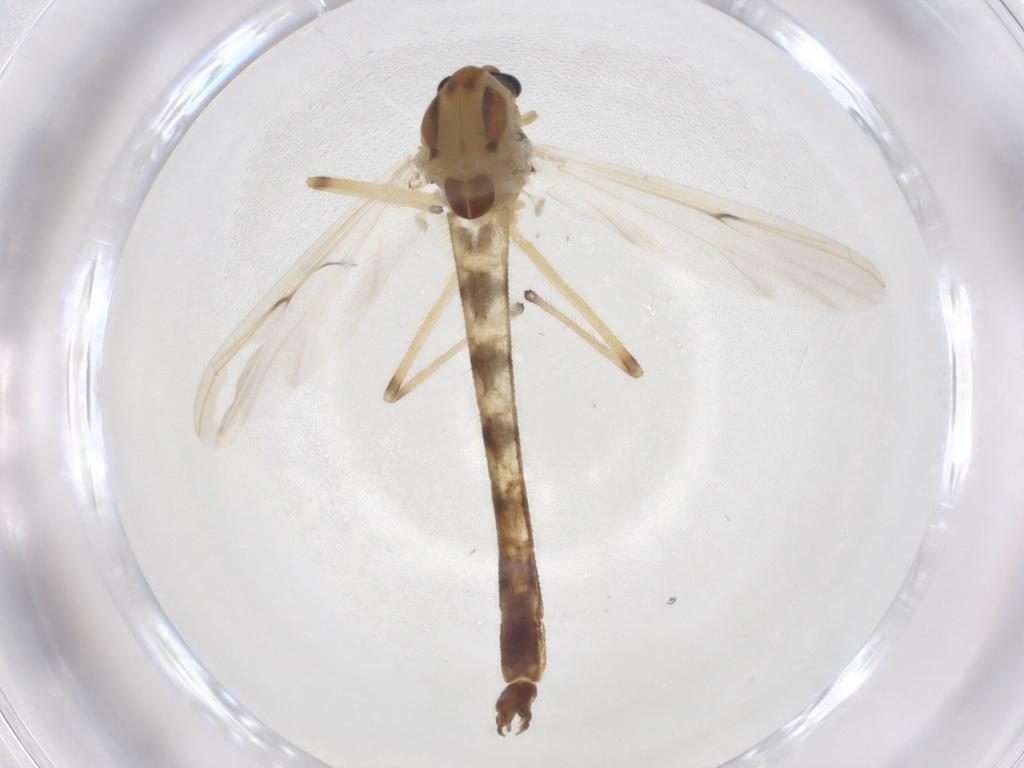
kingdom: Animalia
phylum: Arthropoda
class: Insecta
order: Diptera
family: Chironomidae
